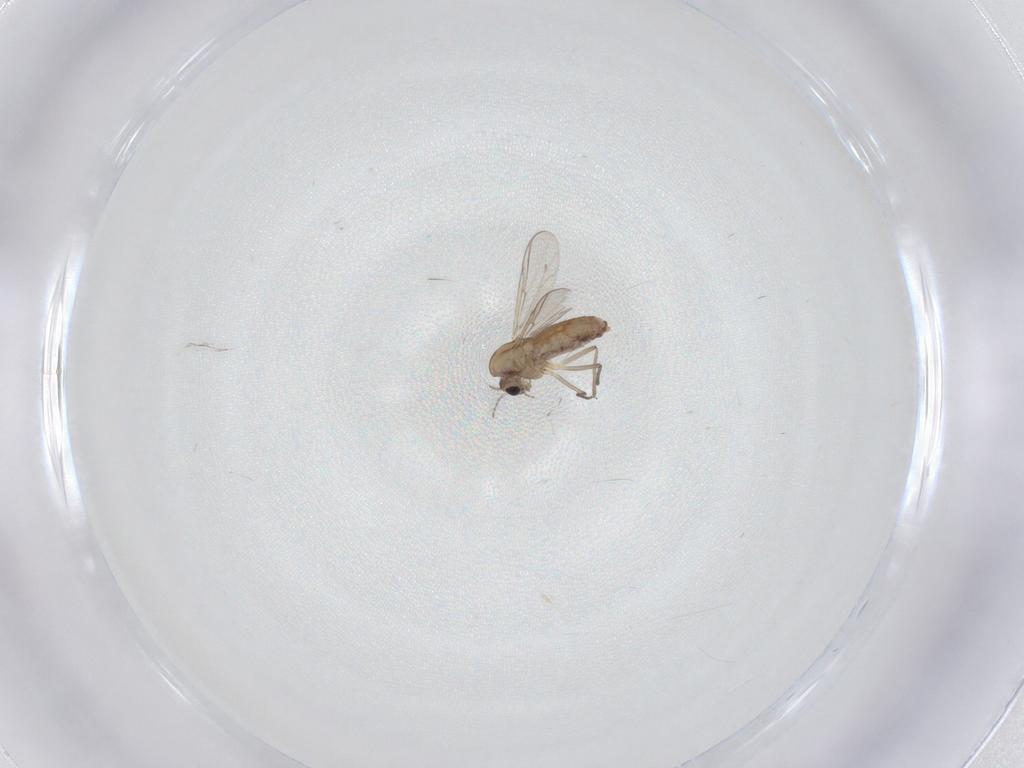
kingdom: Animalia
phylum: Arthropoda
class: Insecta
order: Diptera
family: Chironomidae
